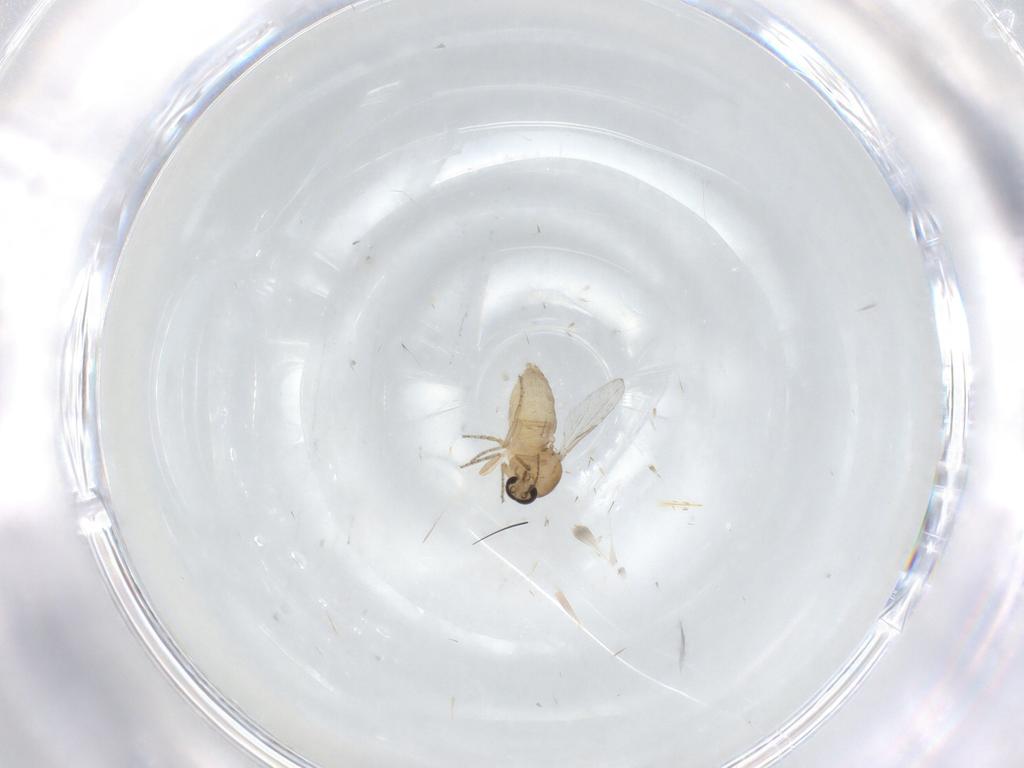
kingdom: Animalia
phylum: Arthropoda
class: Insecta
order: Diptera
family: Ceratopogonidae
